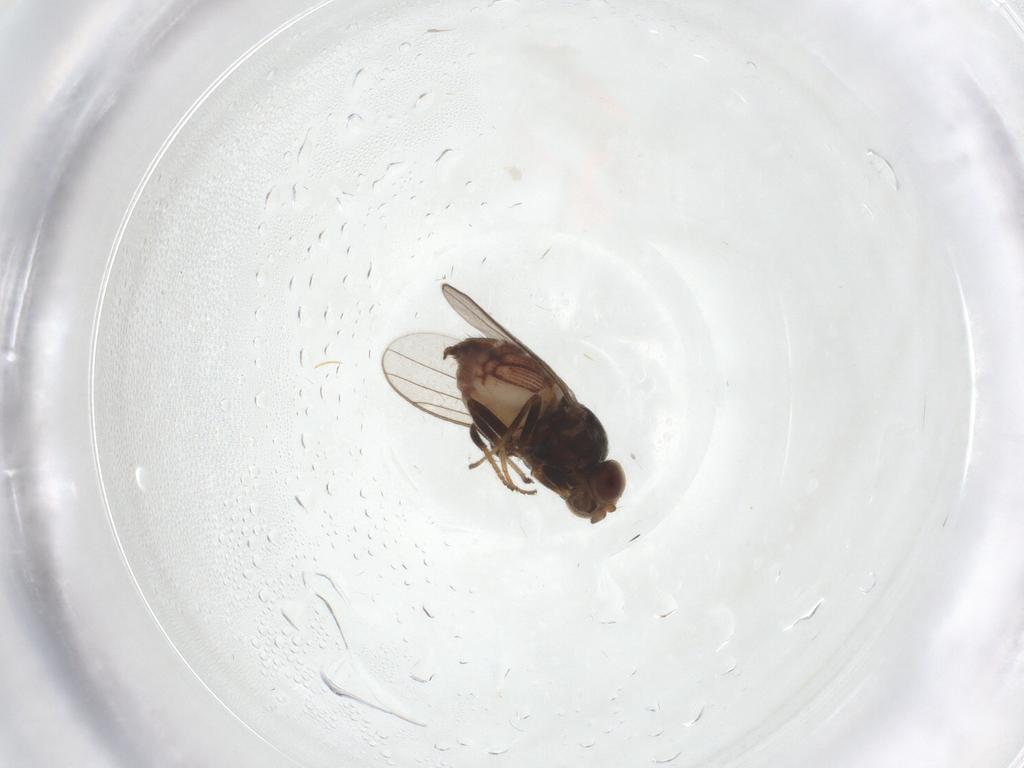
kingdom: Animalia
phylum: Arthropoda
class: Insecta
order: Diptera
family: Chloropidae
